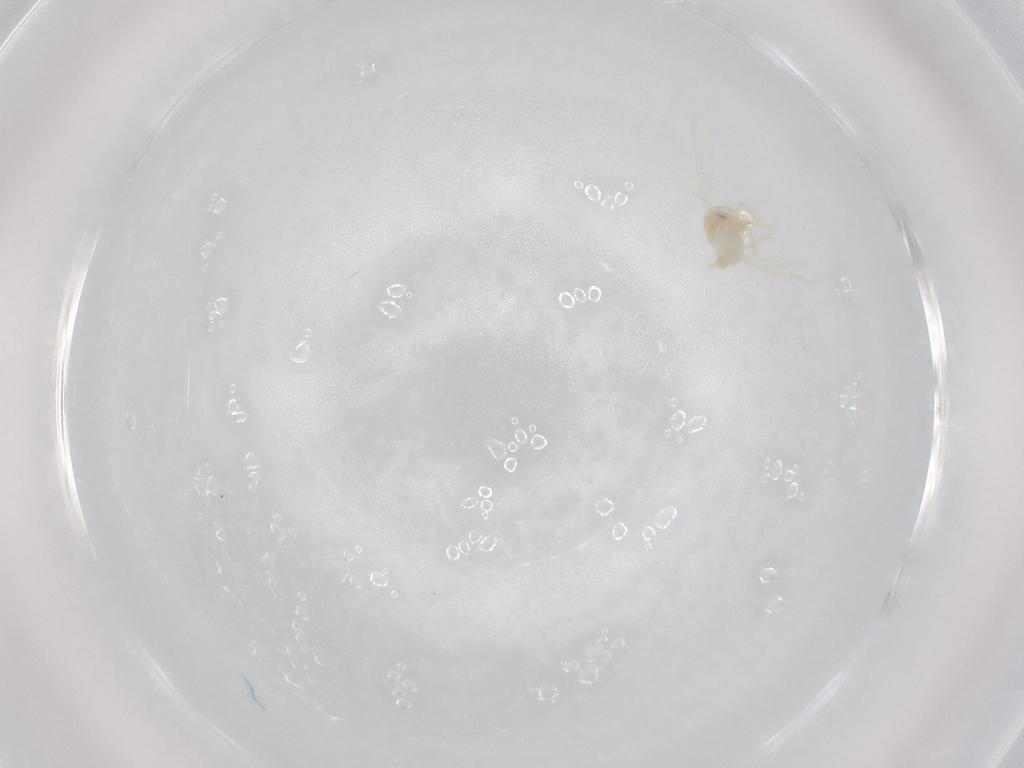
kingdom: Animalia
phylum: Arthropoda
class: Insecta
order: Hemiptera
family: Aleyrodidae
